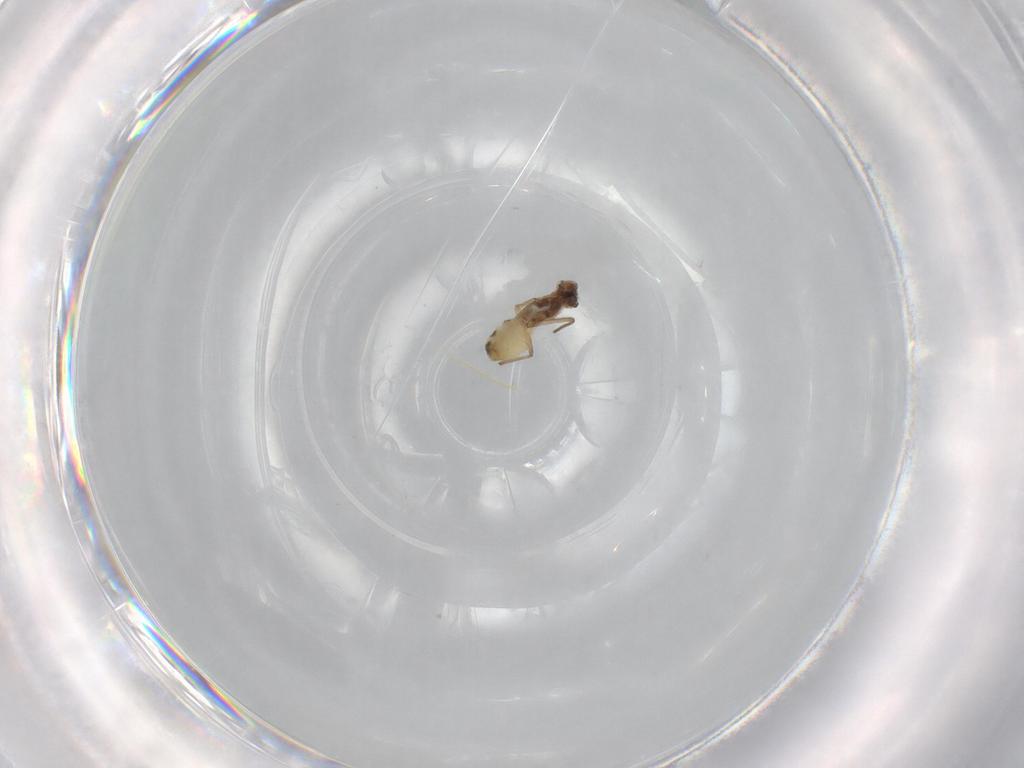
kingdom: Animalia
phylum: Arthropoda
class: Insecta
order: Diptera
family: Chironomidae
